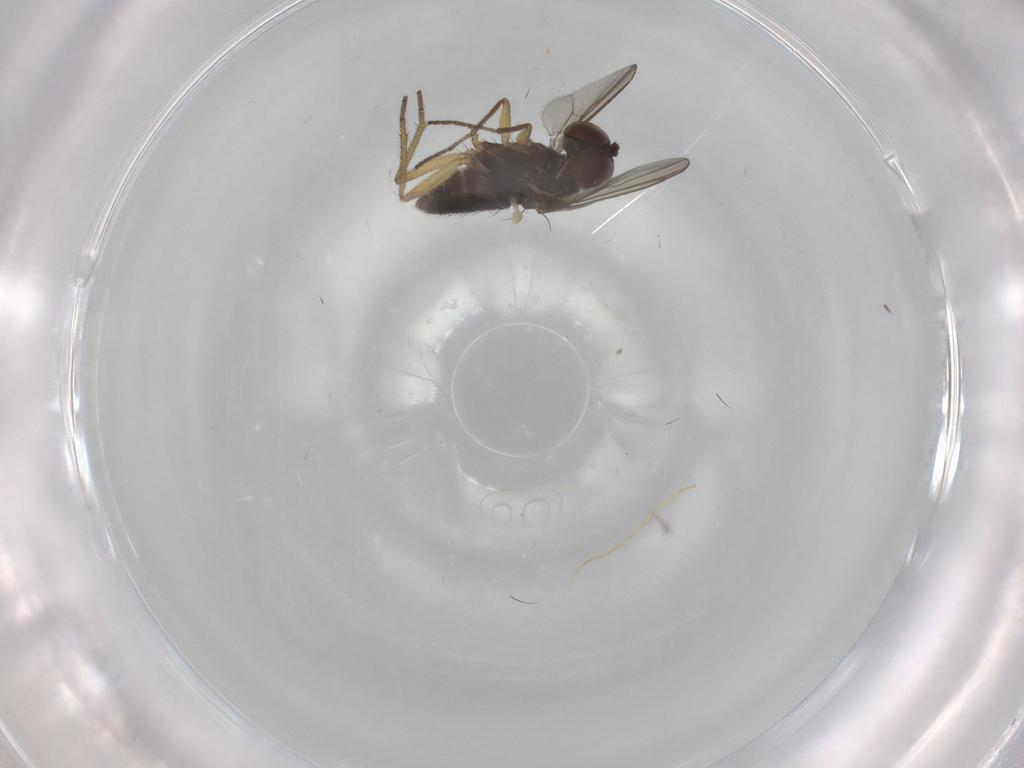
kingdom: Animalia
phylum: Arthropoda
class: Insecta
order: Diptera
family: Dolichopodidae
